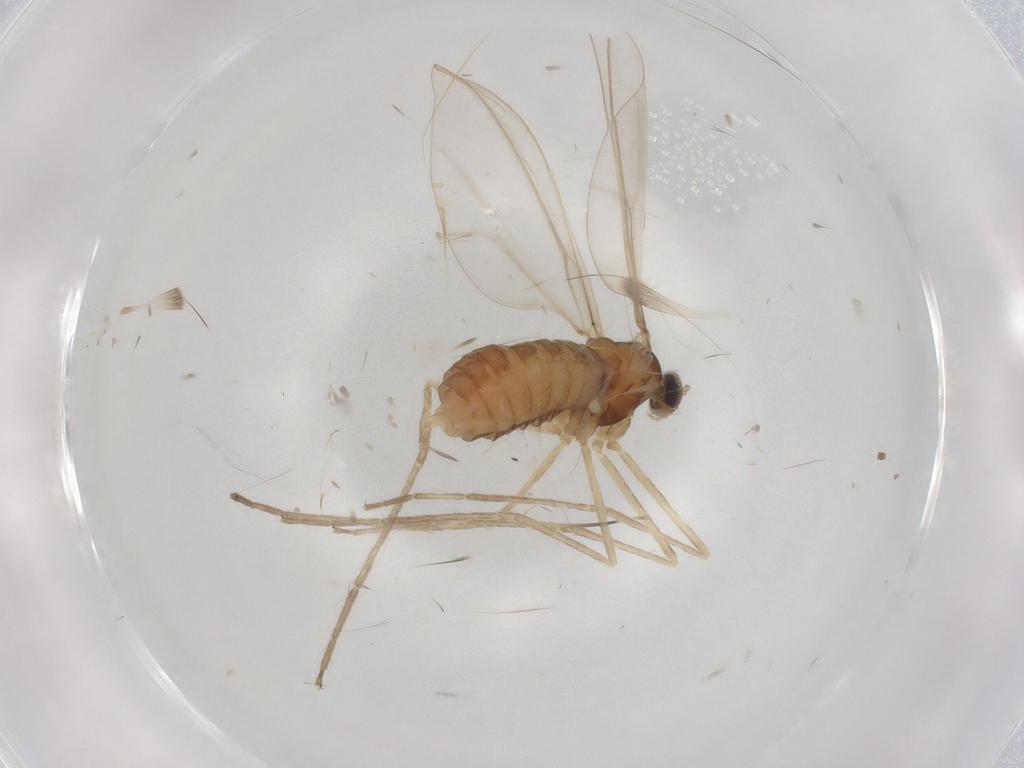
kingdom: Animalia
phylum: Arthropoda
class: Insecta
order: Diptera
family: Cecidomyiidae
